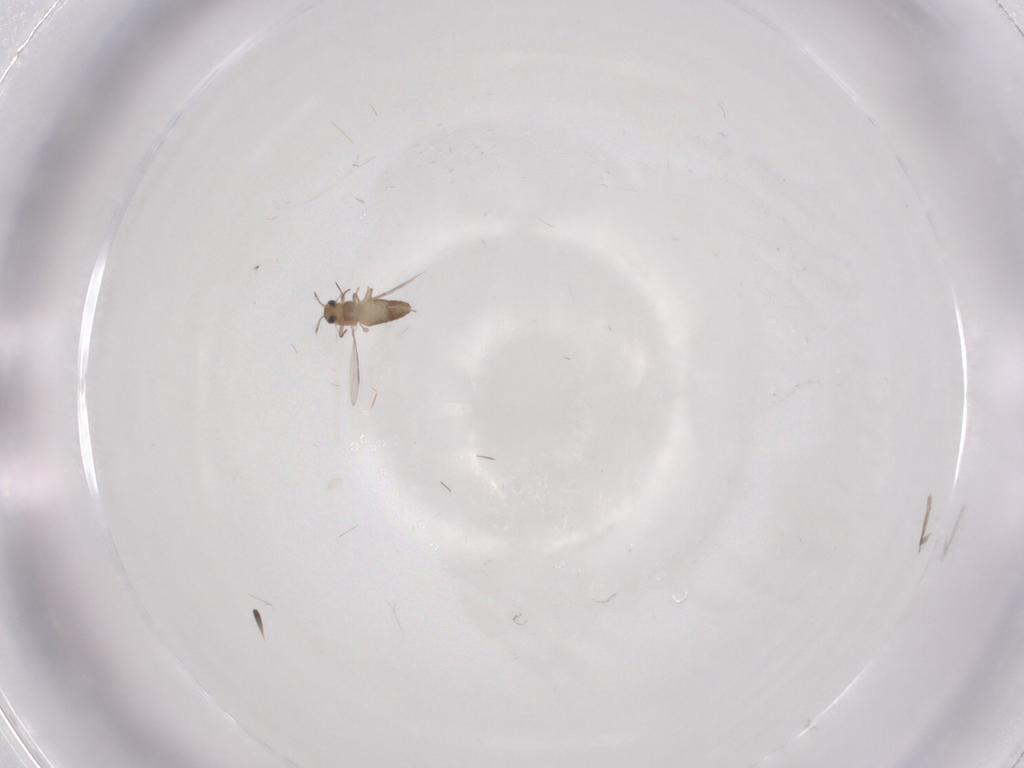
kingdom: Animalia
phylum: Arthropoda
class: Insecta
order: Diptera
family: Chironomidae
